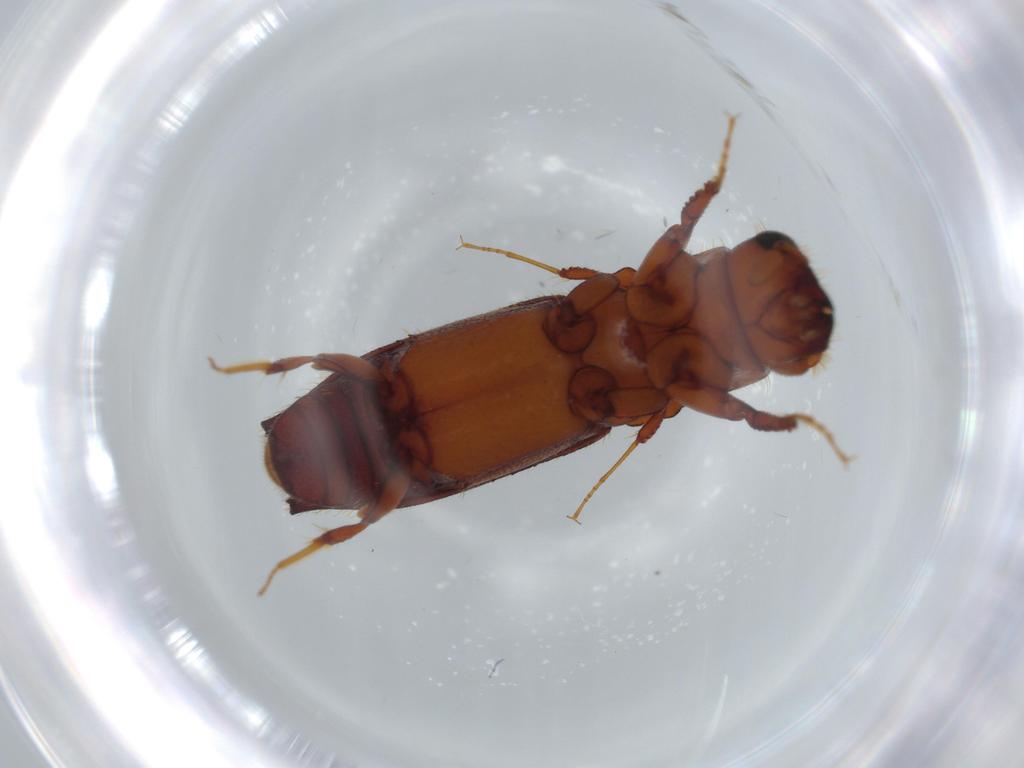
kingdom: Animalia
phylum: Arthropoda
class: Insecta
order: Coleoptera
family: Curculionidae
